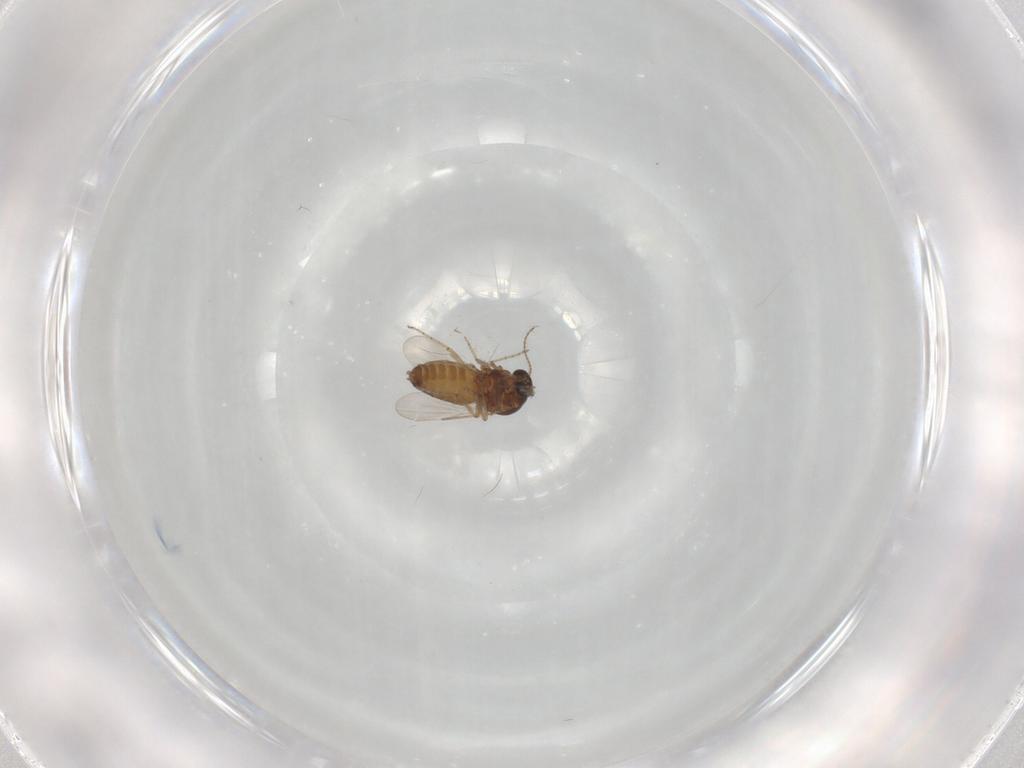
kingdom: Animalia
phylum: Arthropoda
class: Insecta
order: Diptera
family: Ceratopogonidae
